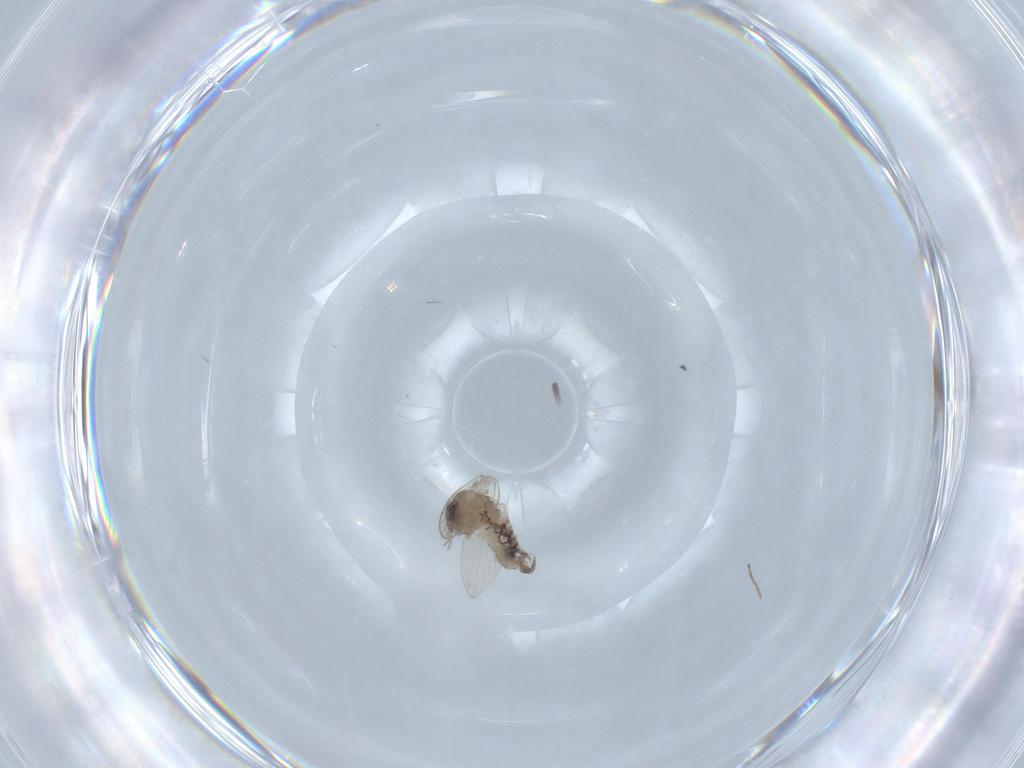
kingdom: Animalia
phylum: Arthropoda
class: Insecta
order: Diptera
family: Psychodidae
